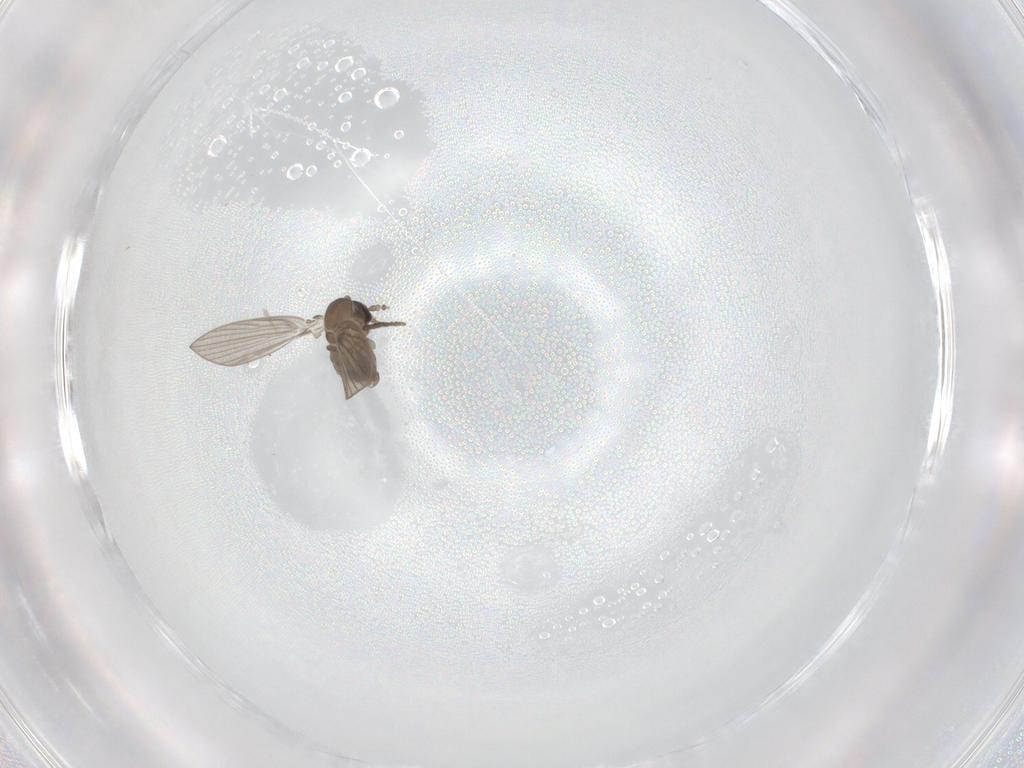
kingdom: Animalia
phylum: Arthropoda
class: Insecta
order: Diptera
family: Psychodidae
